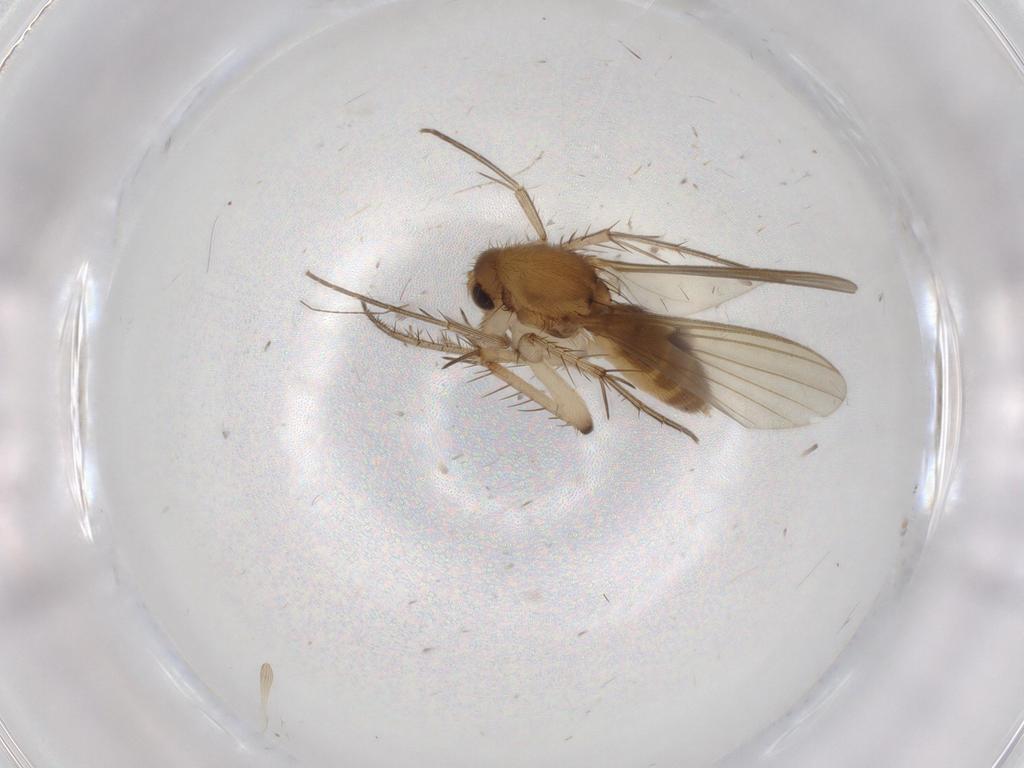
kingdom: Animalia
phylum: Arthropoda
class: Insecta
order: Diptera
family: Mycetophilidae
